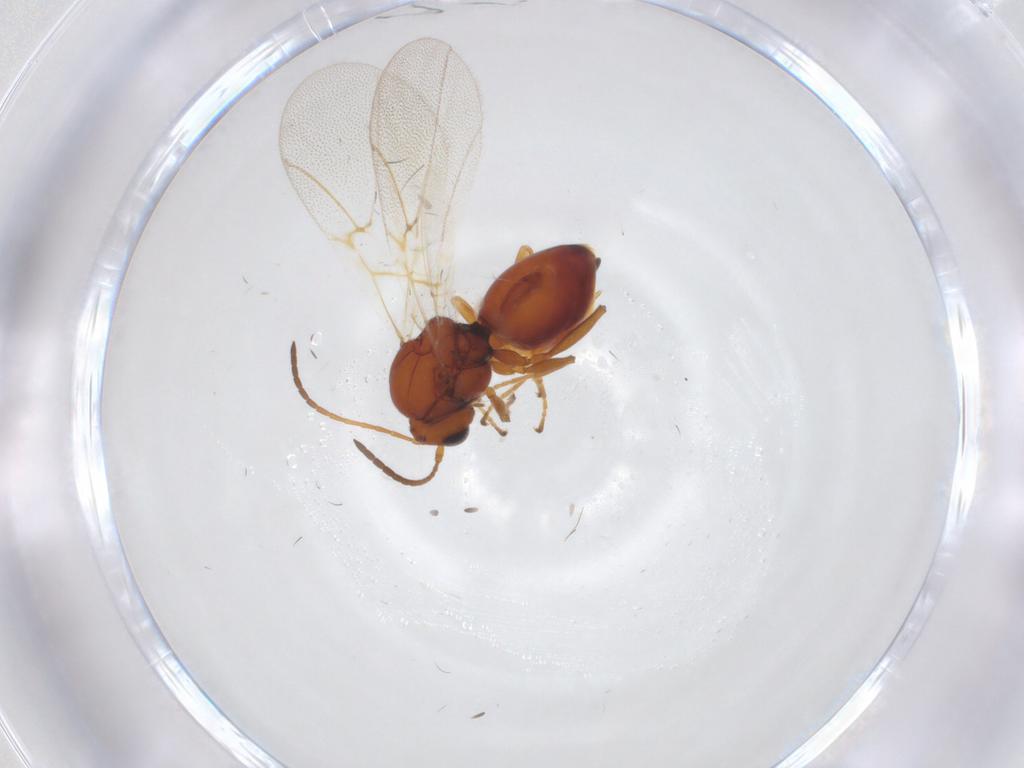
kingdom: Animalia
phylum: Arthropoda
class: Insecta
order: Hymenoptera
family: Cynipidae
